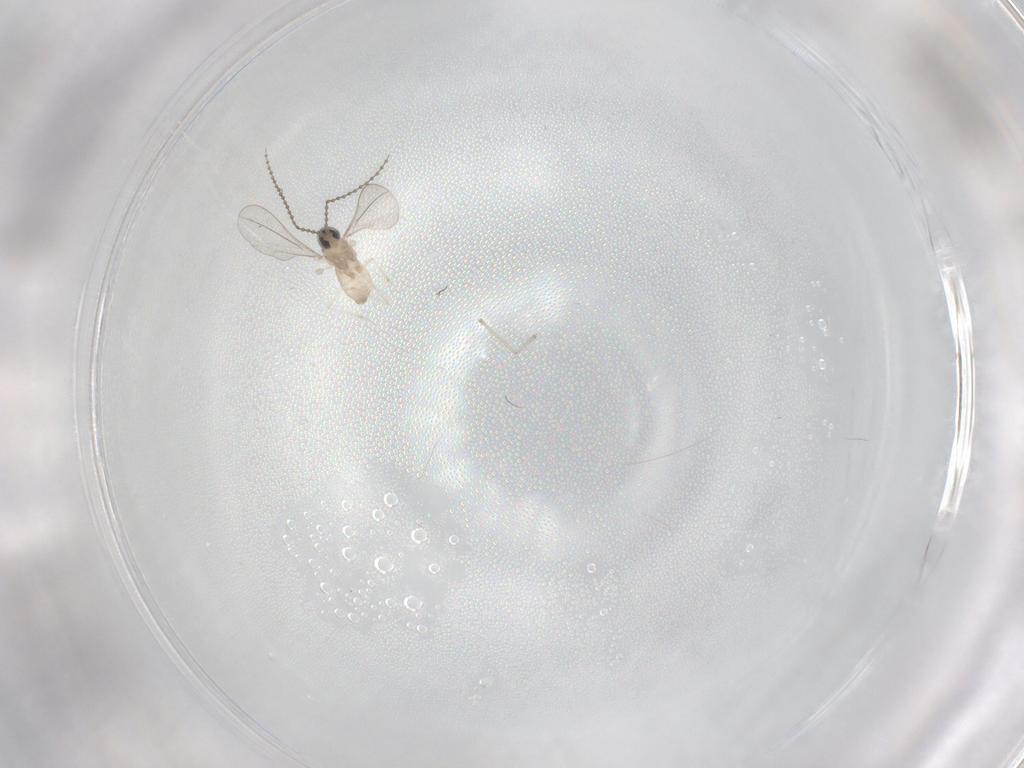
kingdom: Animalia
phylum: Arthropoda
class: Insecta
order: Diptera
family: Cecidomyiidae
